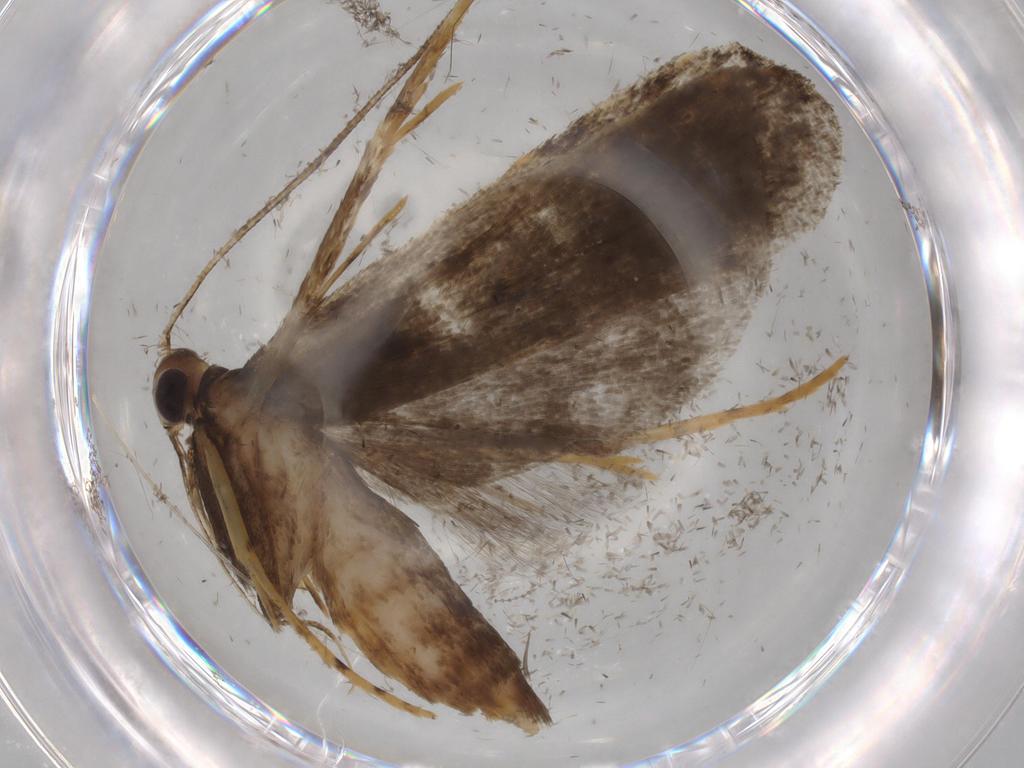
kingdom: Animalia
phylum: Arthropoda
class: Insecta
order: Lepidoptera
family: Cosmopterigidae
